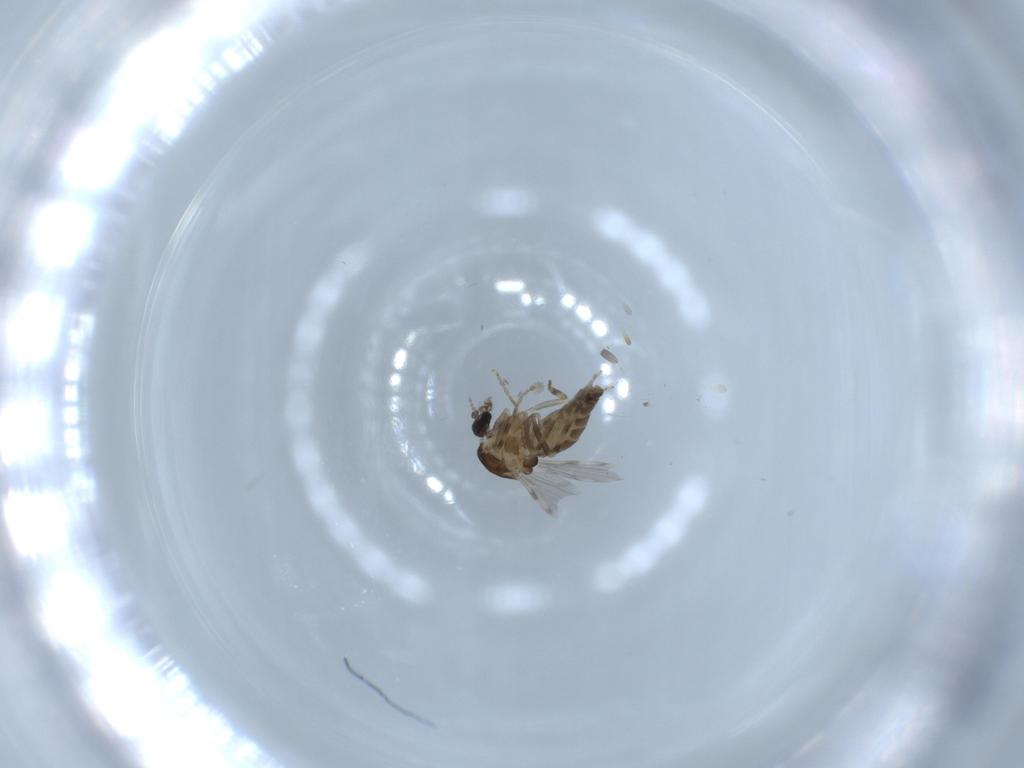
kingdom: Animalia
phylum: Arthropoda
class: Insecta
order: Diptera
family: Ceratopogonidae
